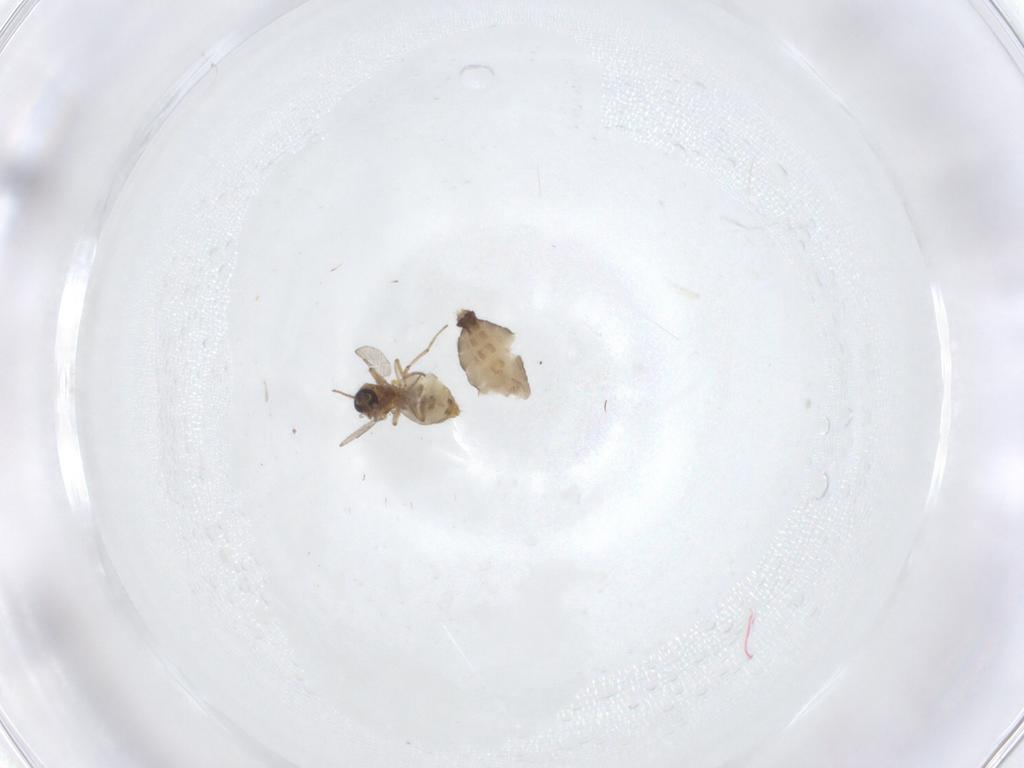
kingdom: Animalia
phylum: Arthropoda
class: Insecta
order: Diptera
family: Ceratopogonidae
